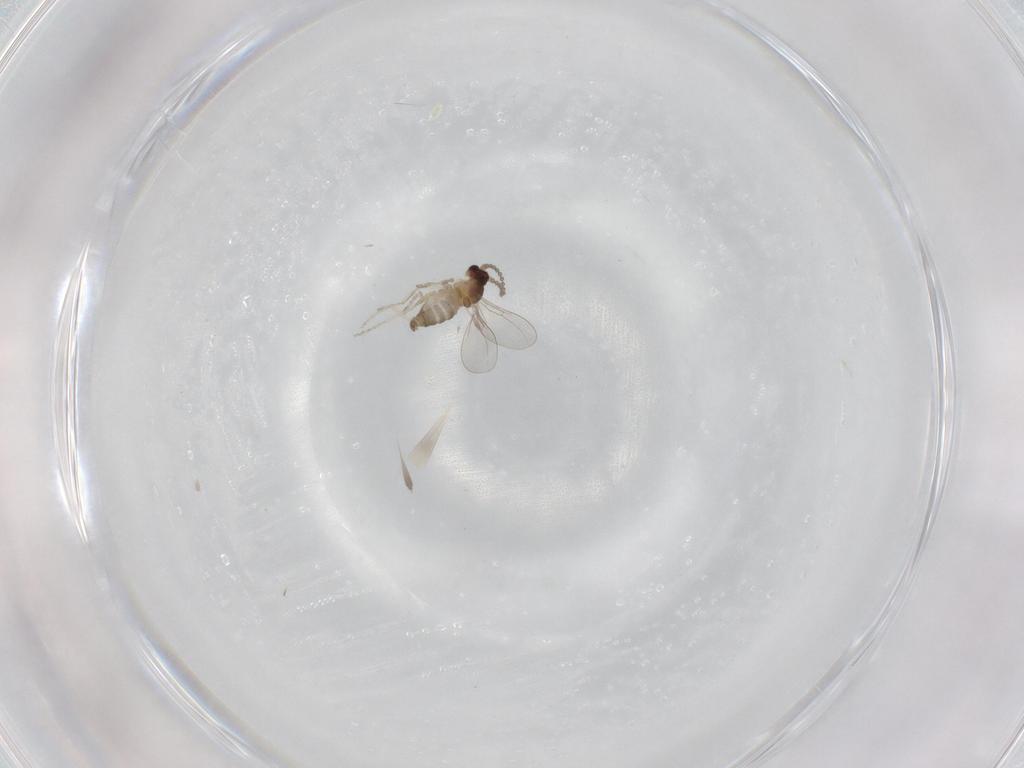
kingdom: Animalia
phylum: Arthropoda
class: Insecta
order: Diptera
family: Cecidomyiidae
